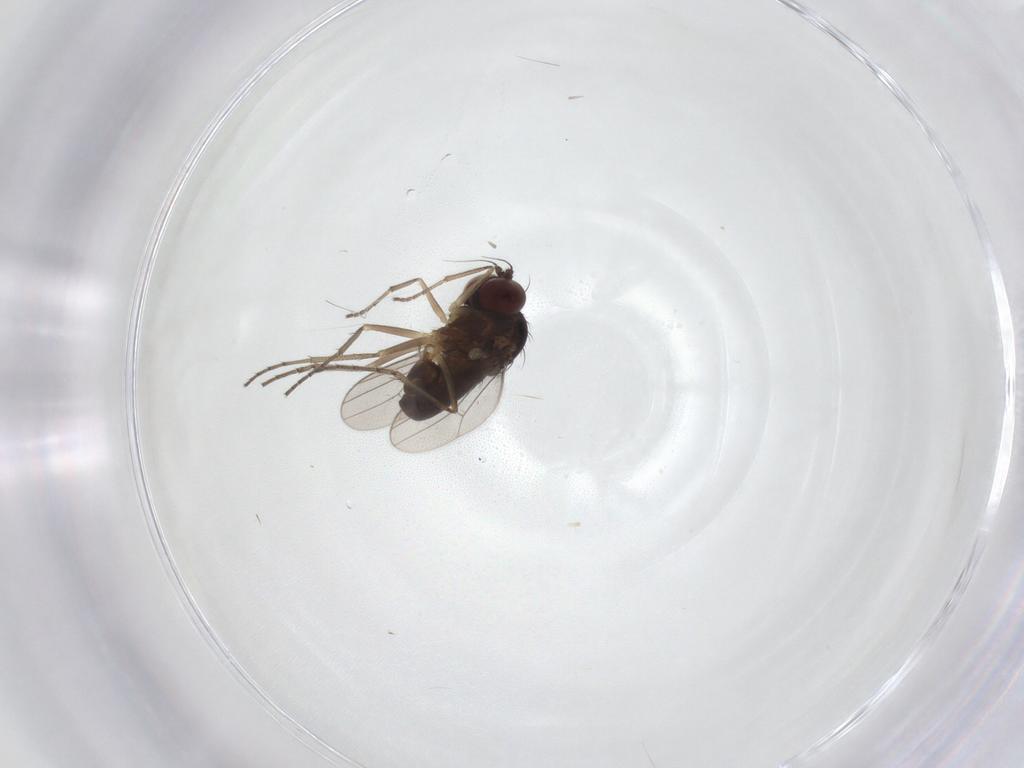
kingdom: Animalia
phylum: Arthropoda
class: Insecta
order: Diptera
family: Dolichopodidae
